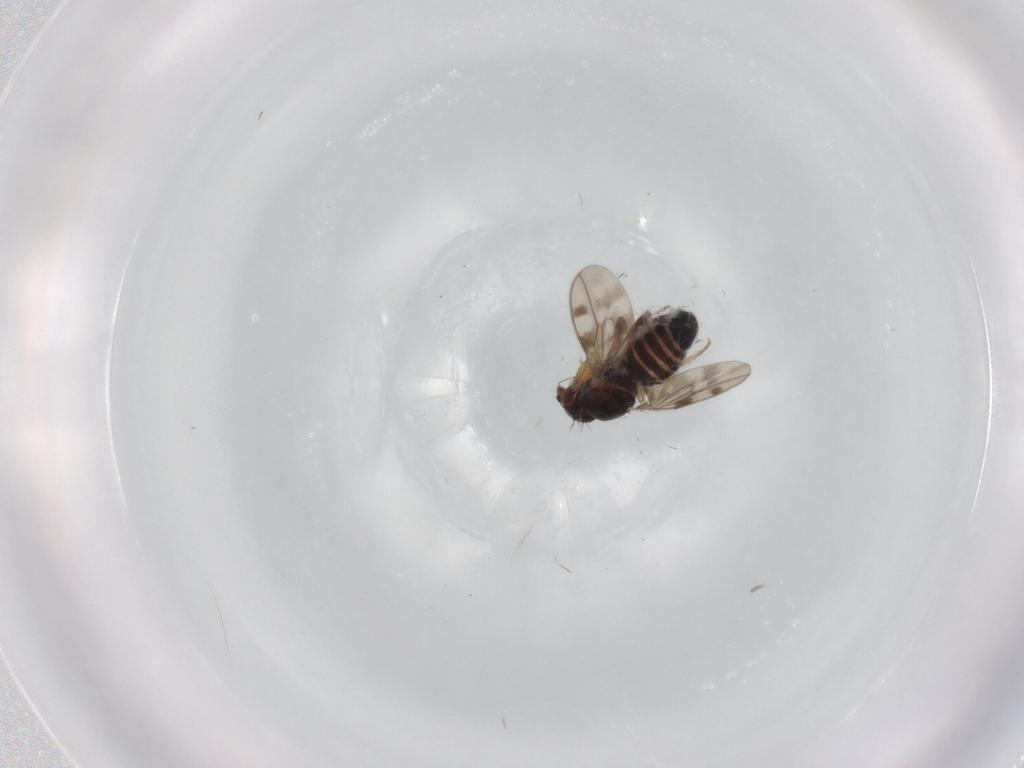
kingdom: Animalia
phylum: Arthropoda
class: Insecta
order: Diptera
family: Sphaeroceridae
